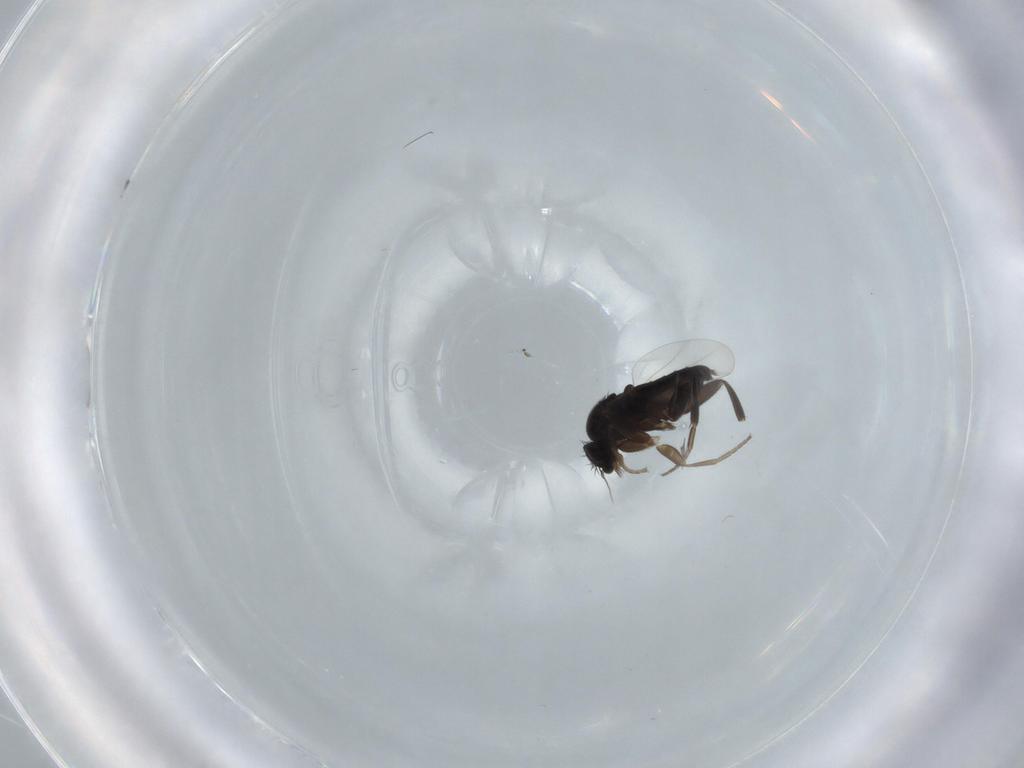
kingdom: Animalia
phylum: Arthropoda
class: Insecta
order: Diptera
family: Phoridae
